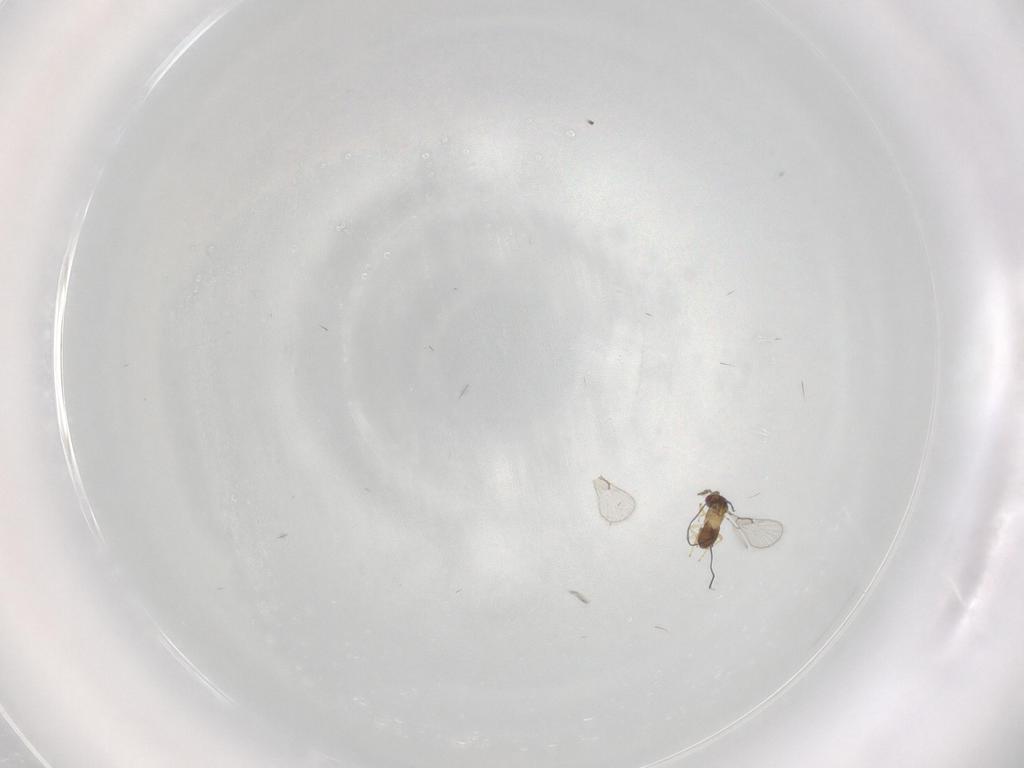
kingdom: Animalia
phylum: Arthropoda
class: Insecta
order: Hymenoptera
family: Trichogrammatidae
